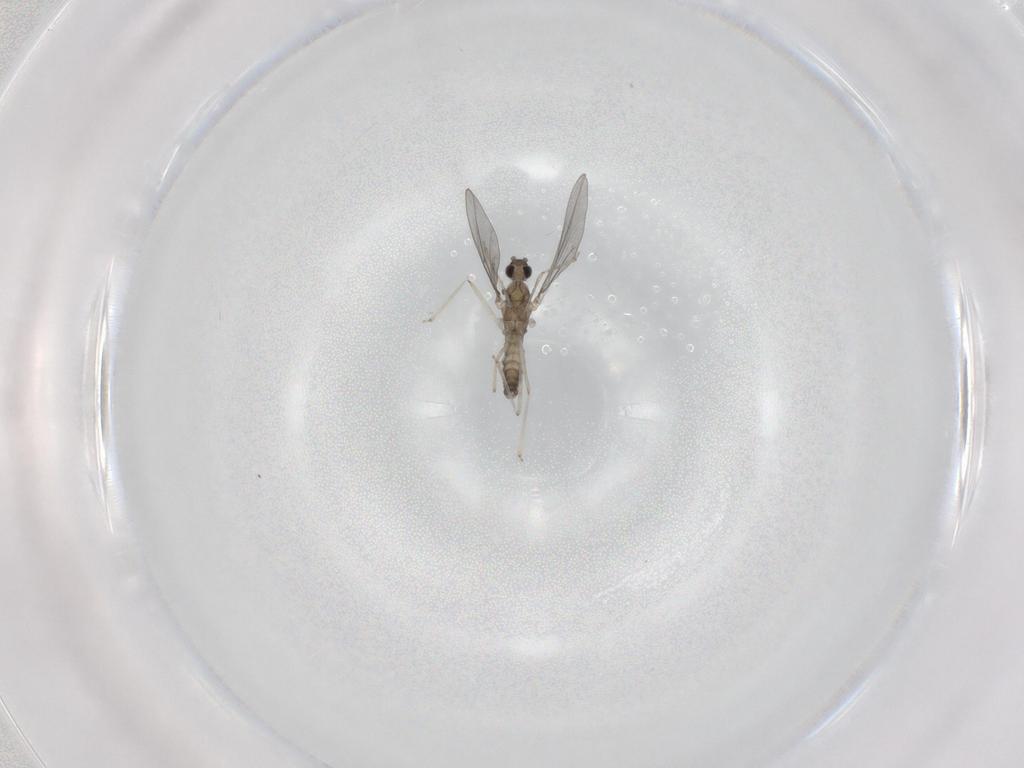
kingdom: Animalia
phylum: Arthropoda
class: Insecta
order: Diptera
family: Cecidomyiidae
